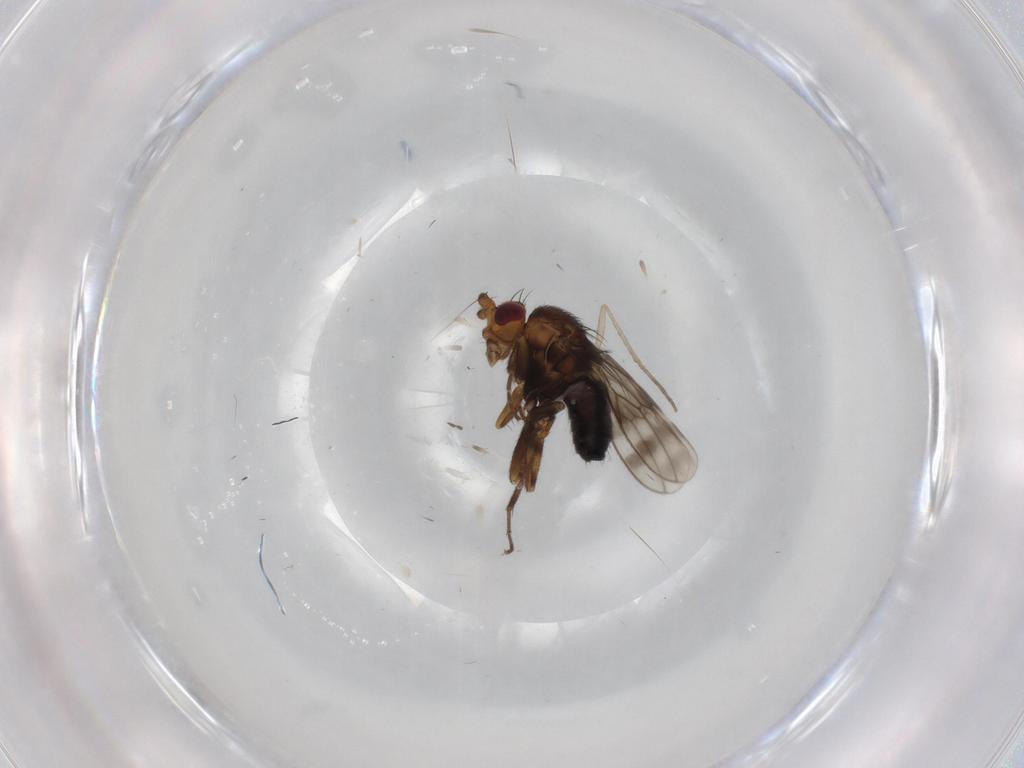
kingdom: Animalia
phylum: Arthropoda
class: Insecta
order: Diptera
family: Sphaeroceridae
